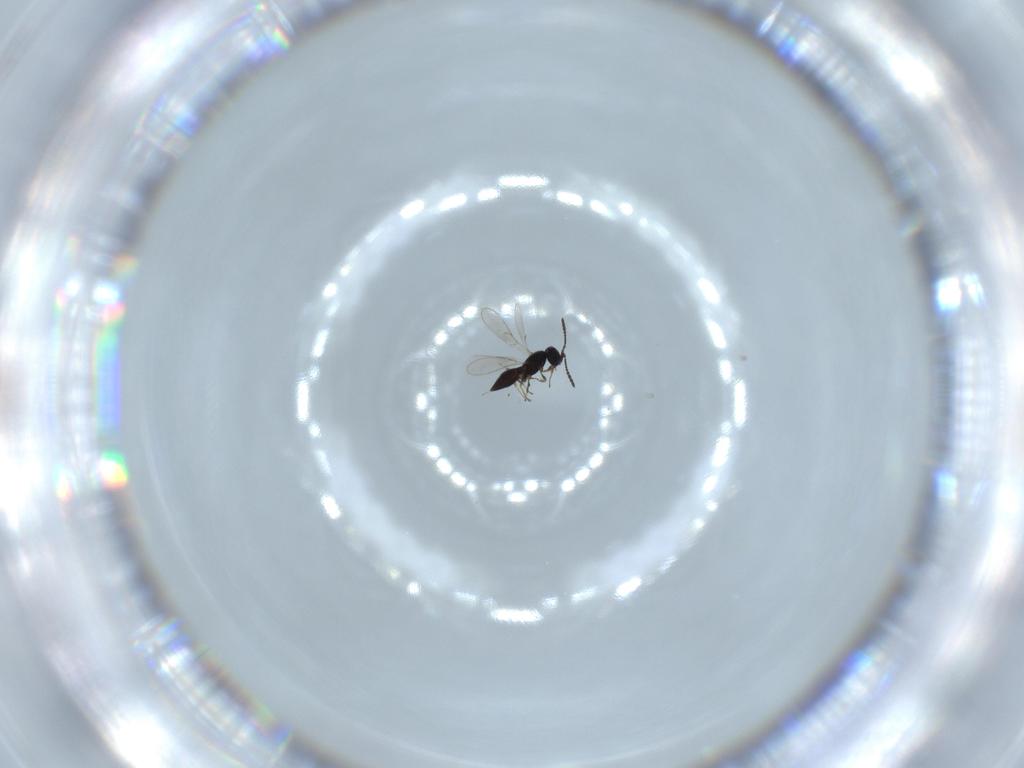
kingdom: Animalia
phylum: Arthropoda
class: Insecta
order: Hymenoptera
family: Scelionidae
